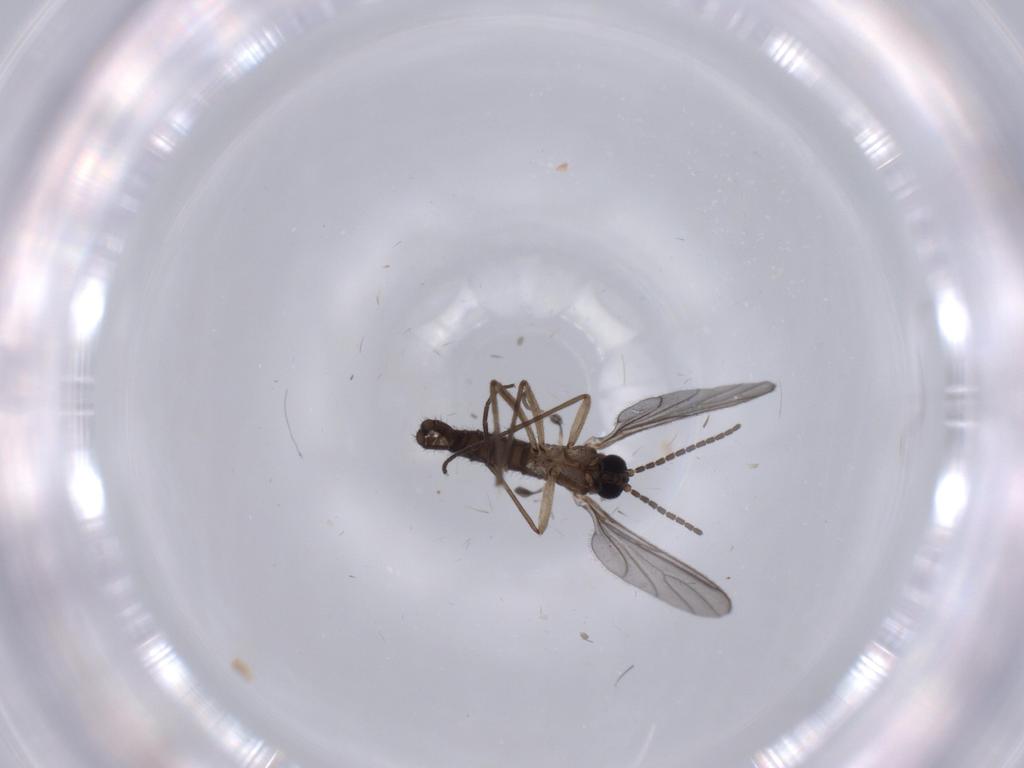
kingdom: Animalia
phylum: Arthropoda
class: Insecta
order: Diptera
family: Sciaridae
